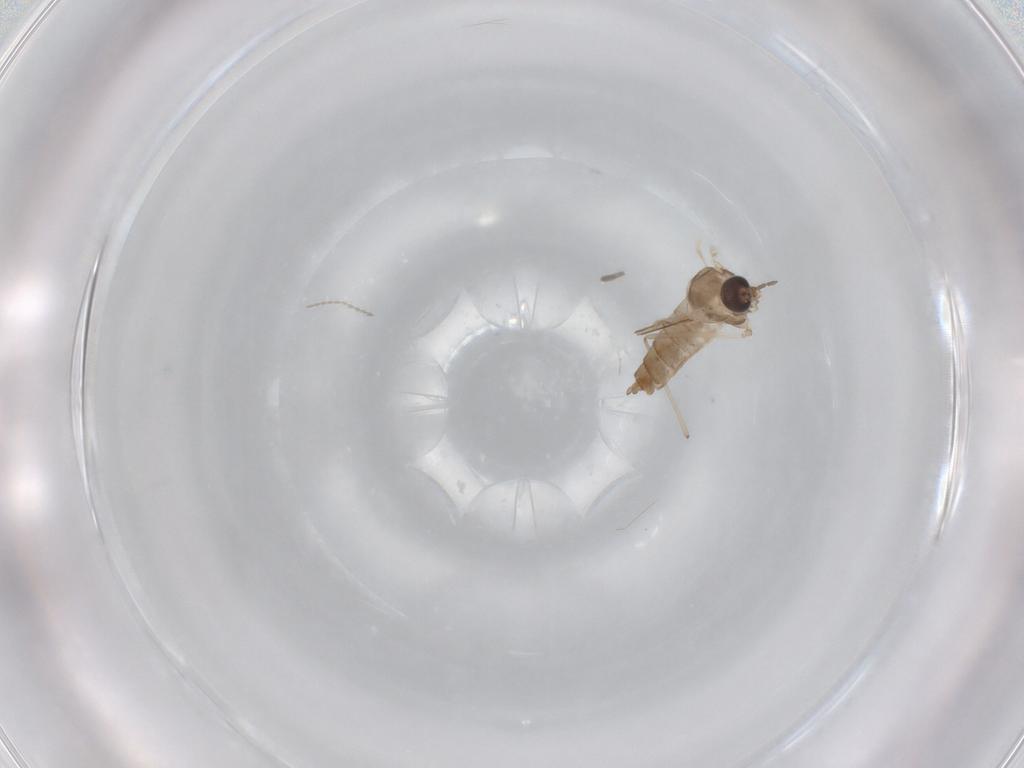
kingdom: Animalia
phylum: Arthropoda
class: Insecta
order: Diptera
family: Cecidomyiidae
